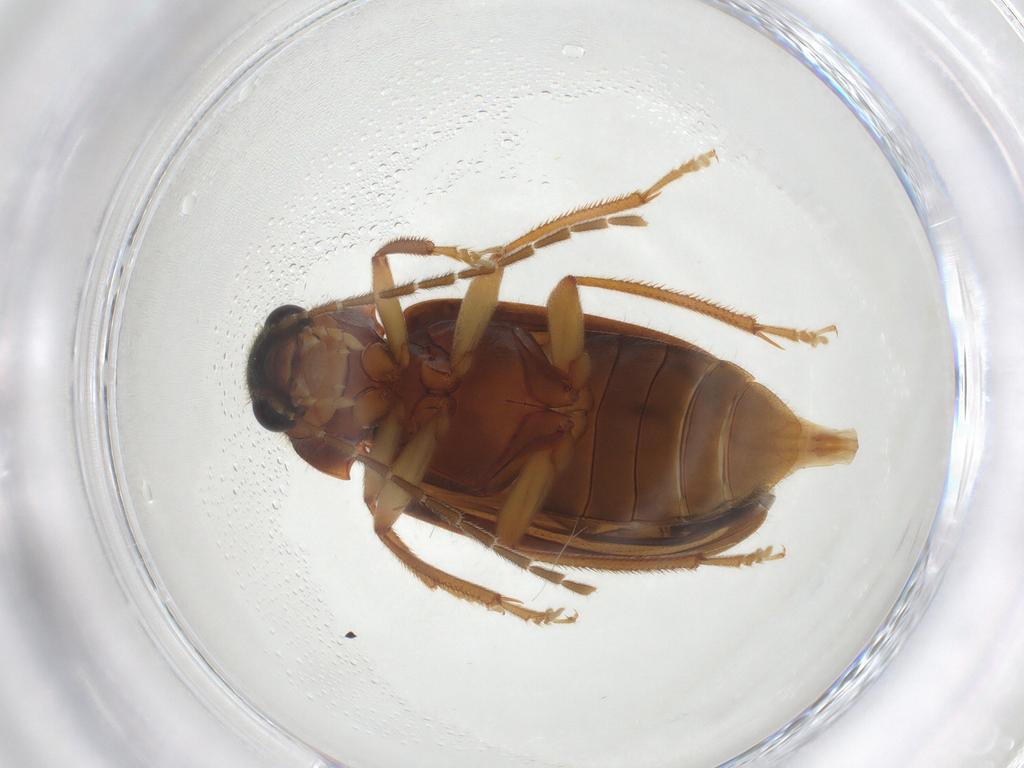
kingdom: Animalia
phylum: Arthropoda
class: Insecta
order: Coleoptera
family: Ptilodactylidae
